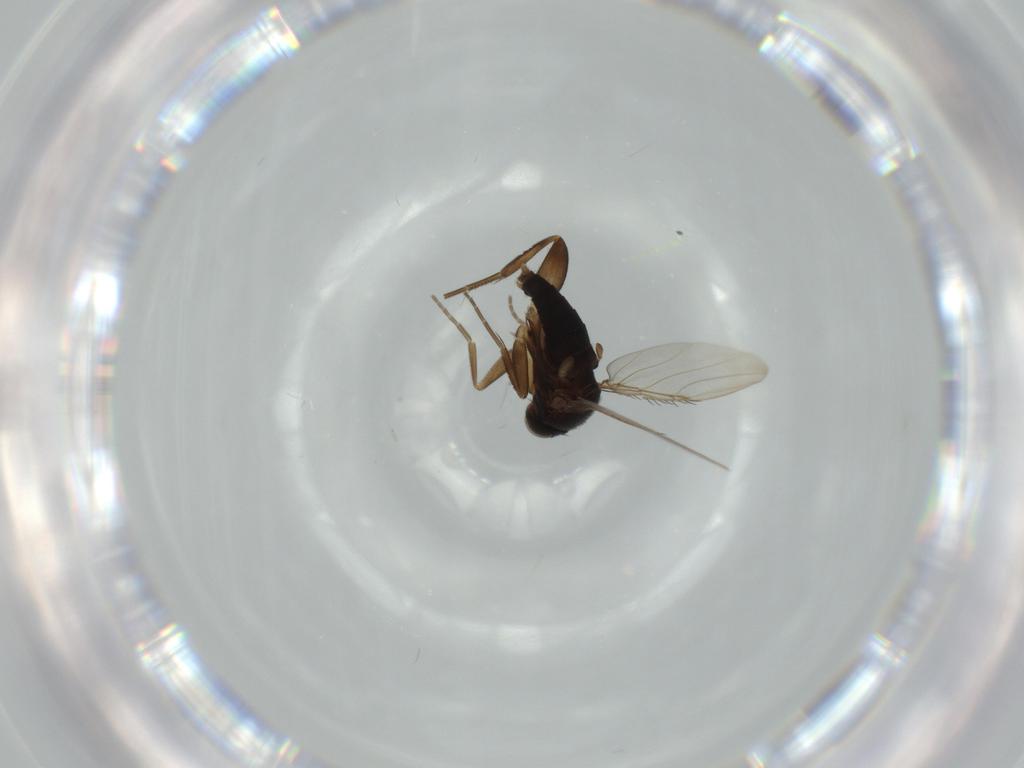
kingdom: Animalia
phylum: Arthropoda
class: Insecta
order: Diptera
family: Phoridae
